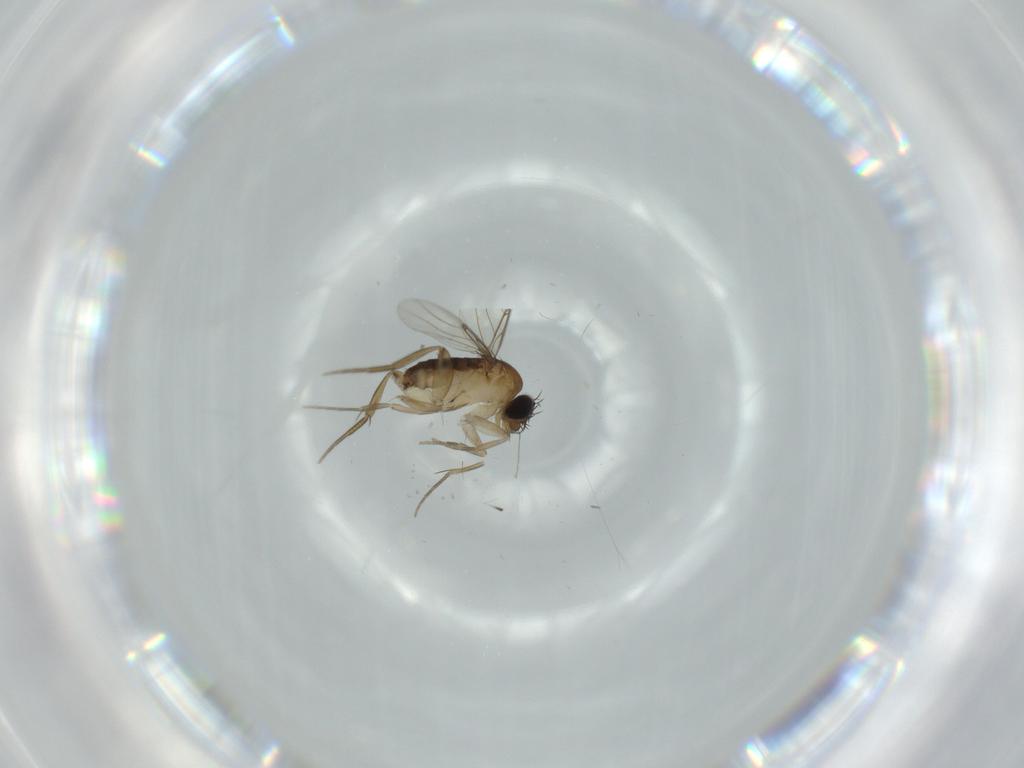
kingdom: Animalia
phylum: Arthropoda
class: Insecta
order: Diptera
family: Phoridae
